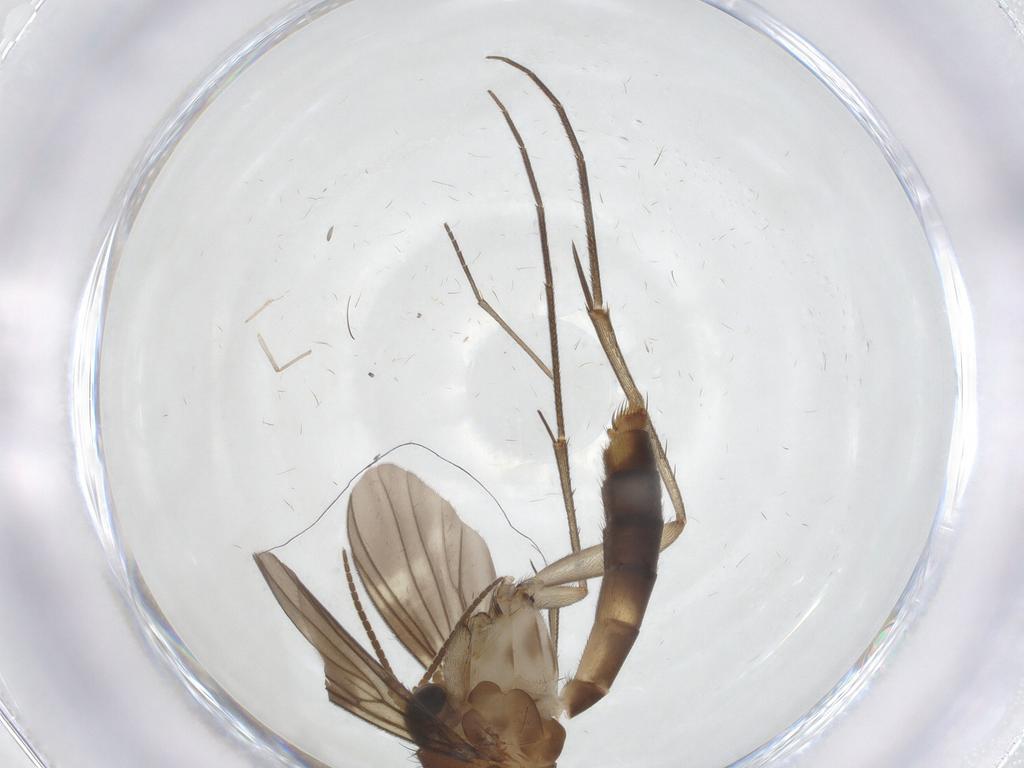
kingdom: Animalia
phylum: Arthropoda
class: Insecta
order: Diptera
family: Mycetophilidae
